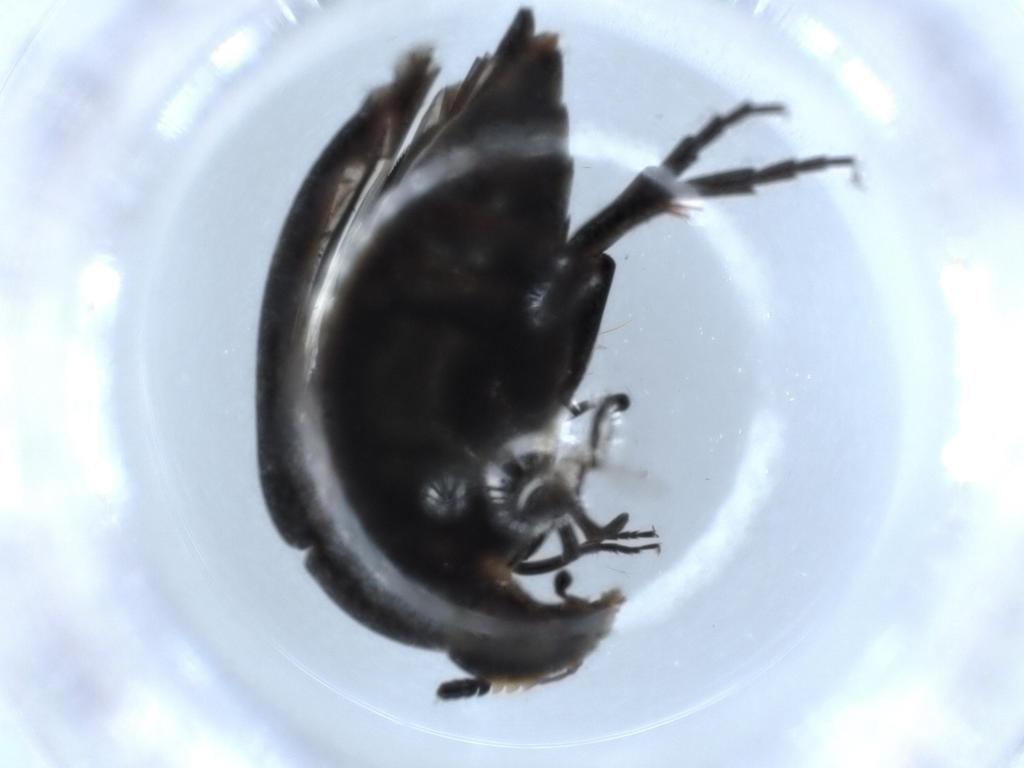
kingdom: Animalia
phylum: Arthropoda
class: Insecta
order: Coleoptera
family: Mordellidae
